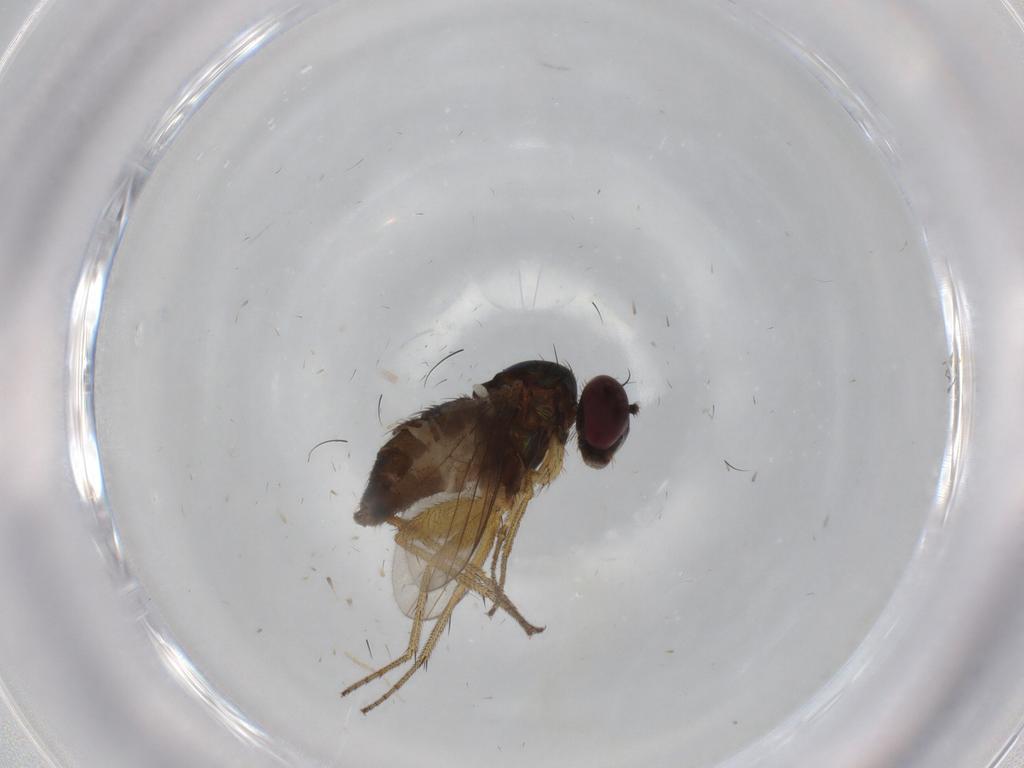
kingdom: Animalia
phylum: Arthropoda
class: Insecta
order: Diptera
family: Dolichopodidae
